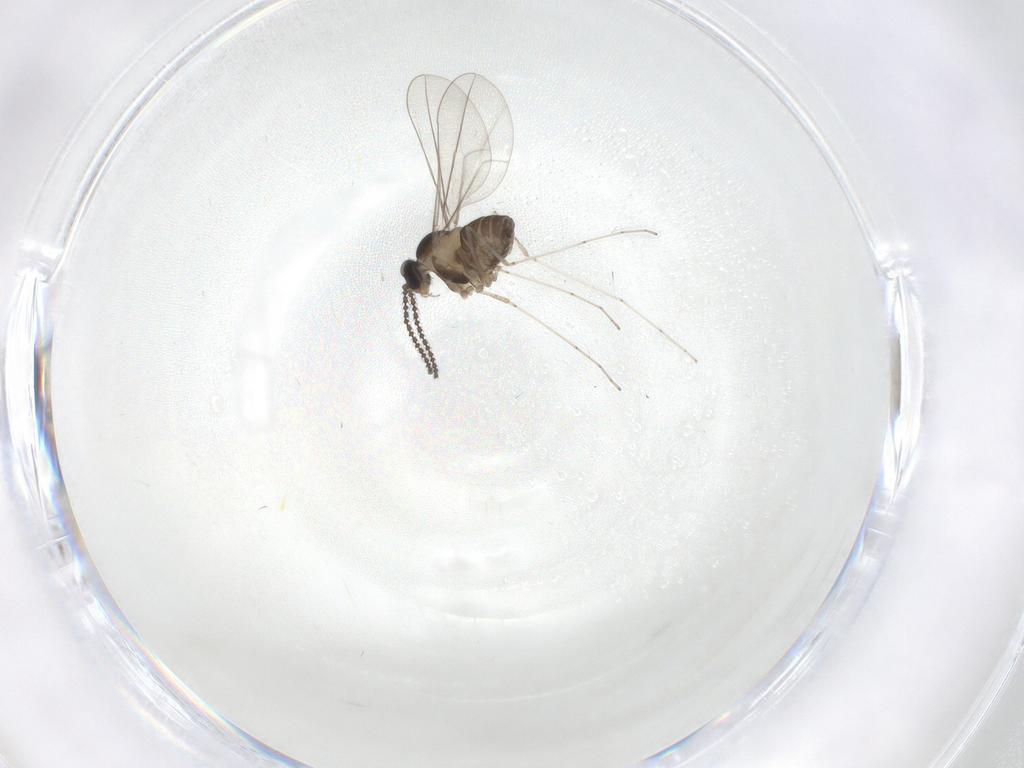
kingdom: Animalia
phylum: Arthropoda
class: Insecta
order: Diptera
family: Cecidomyiidae
